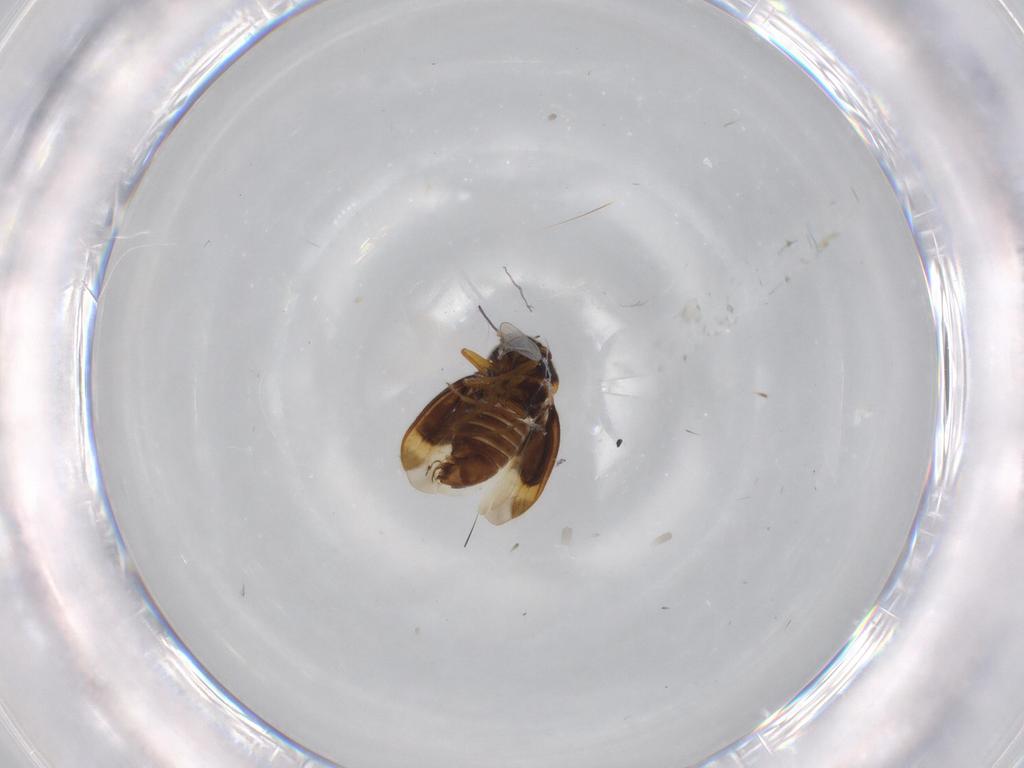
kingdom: Animalia
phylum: Arthropoda
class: Insecta
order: Hemiptera
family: Schizopteridae
